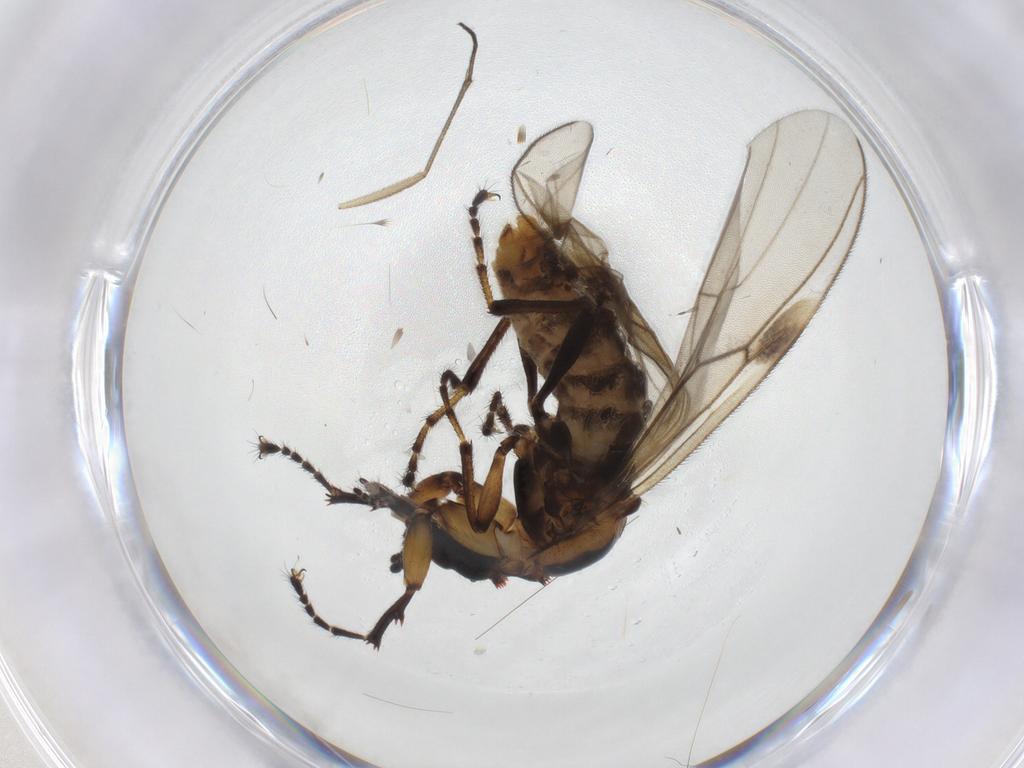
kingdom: Animalia
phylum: Arthropoda
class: Insecta
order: Diptera
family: Bibionidae
